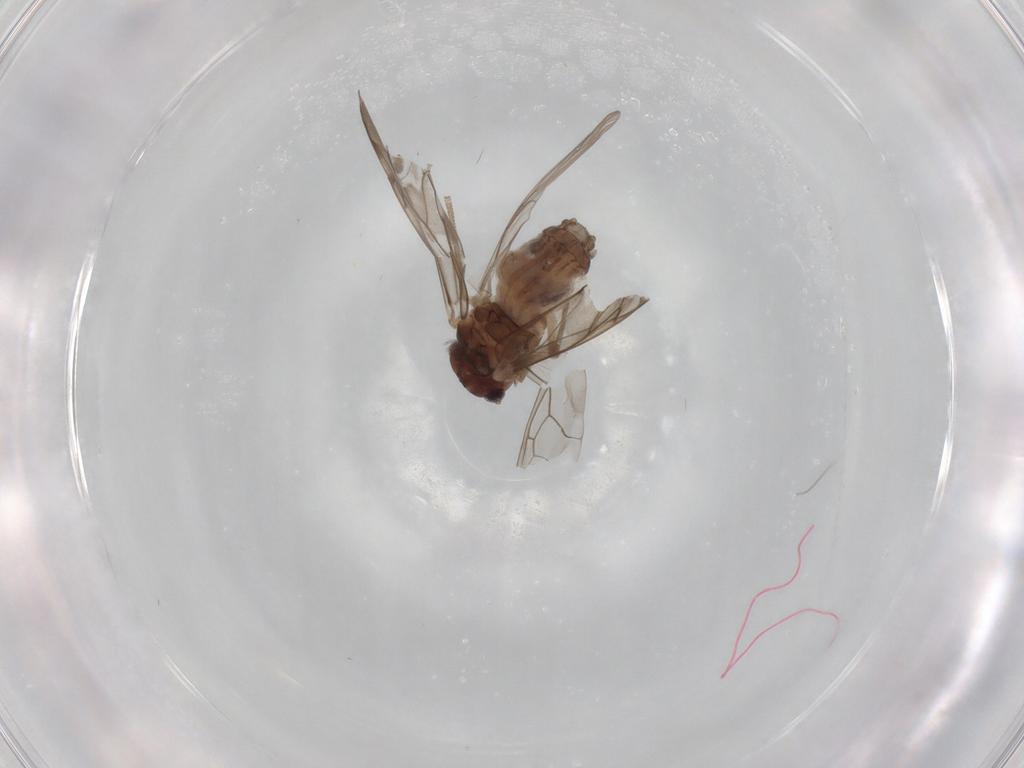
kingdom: Animalia
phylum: Arthropoda
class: Insecta
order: Psocodea
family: Peripsocidae
